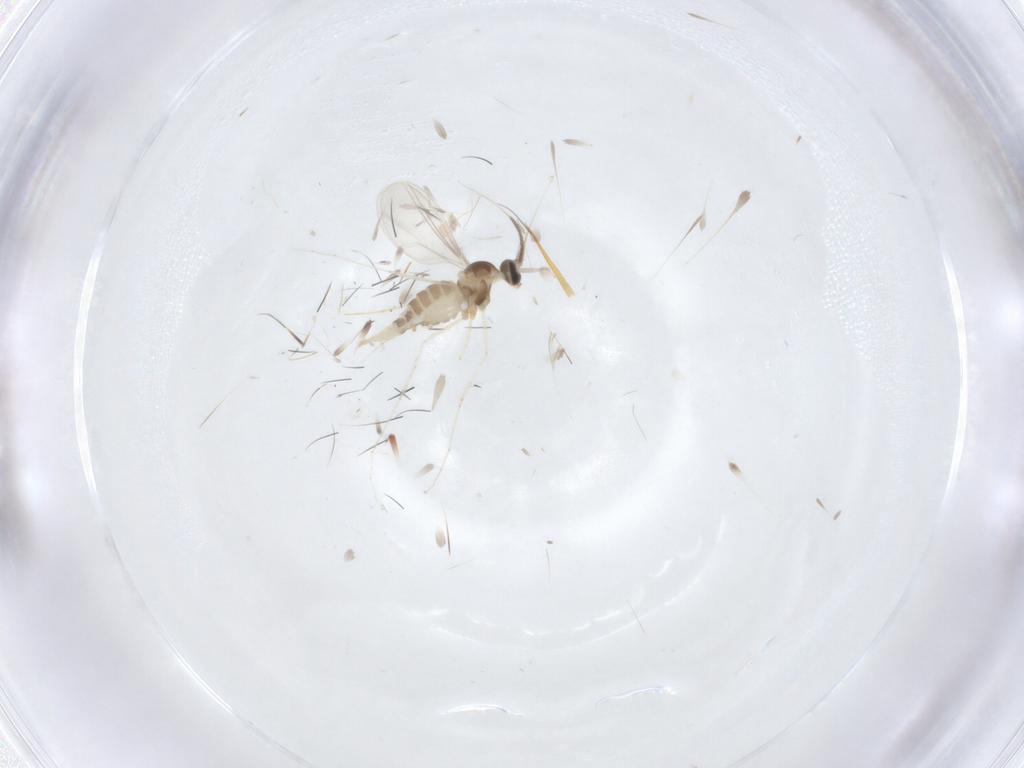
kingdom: Animalia
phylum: Arthropoda
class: Insecta
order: Diptera
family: Cecidomyiidae
